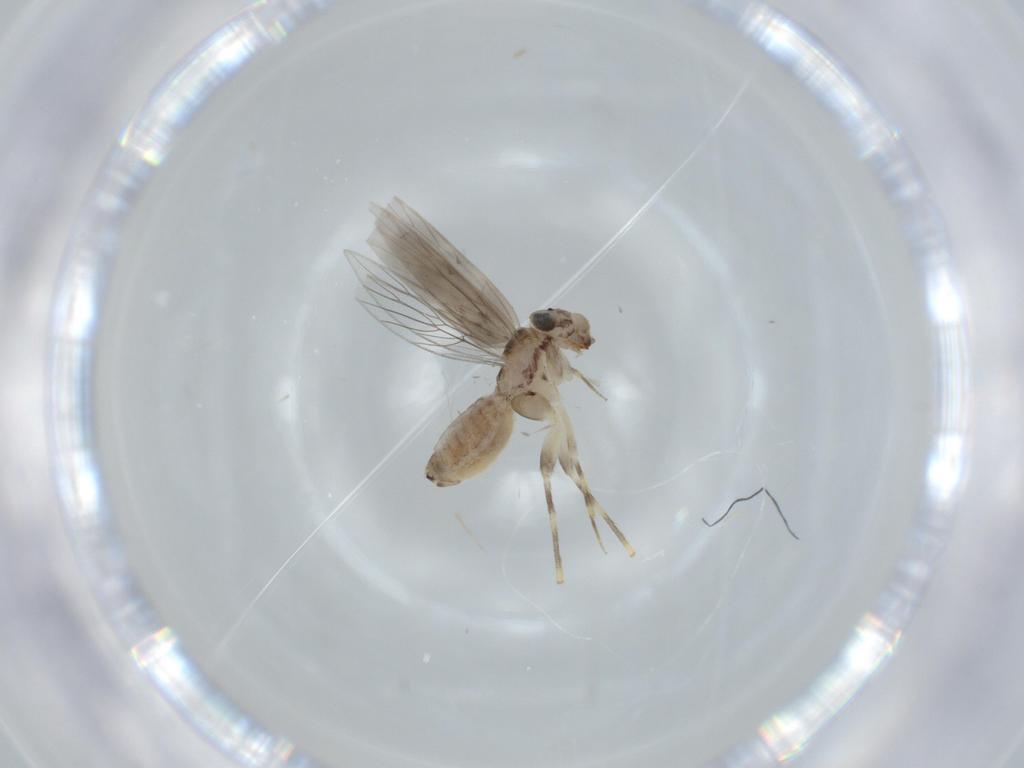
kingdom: Animalia
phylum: Arthropoda
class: Insecta
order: Psocodea
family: Lepidopsocidae
